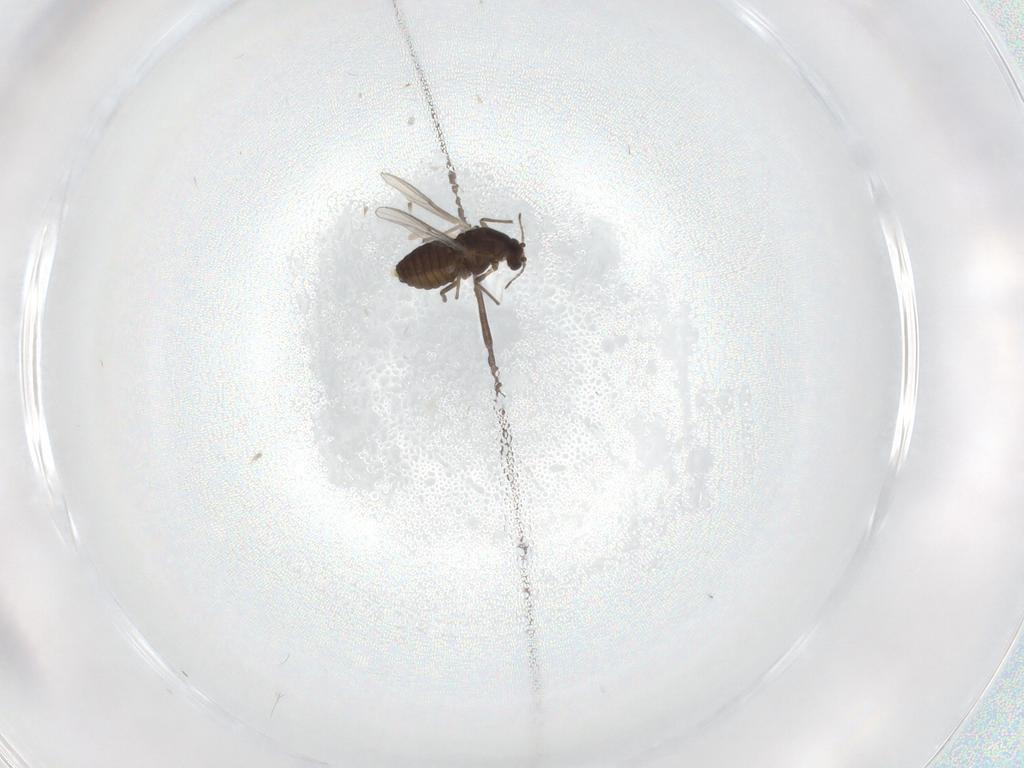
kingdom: Animalia
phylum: Arthropoda
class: Insecta
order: Diptera
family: Chironomidae
